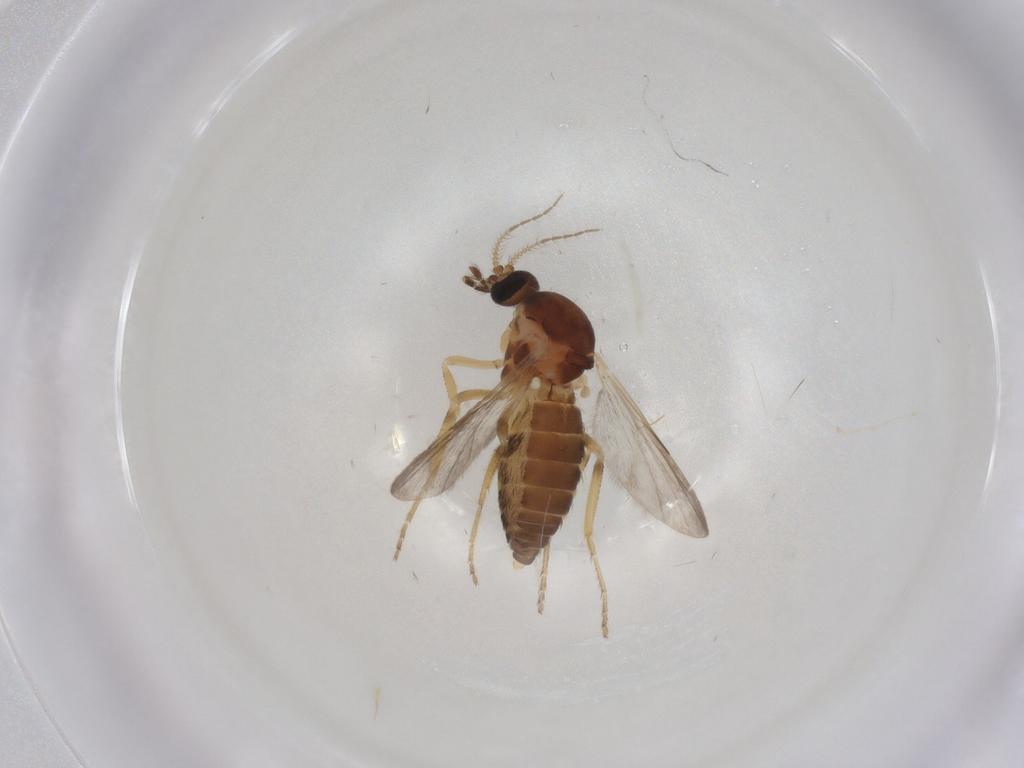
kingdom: Animalia
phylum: Arthropoda
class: Insecta
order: Diptera
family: Ceratopogonidae
